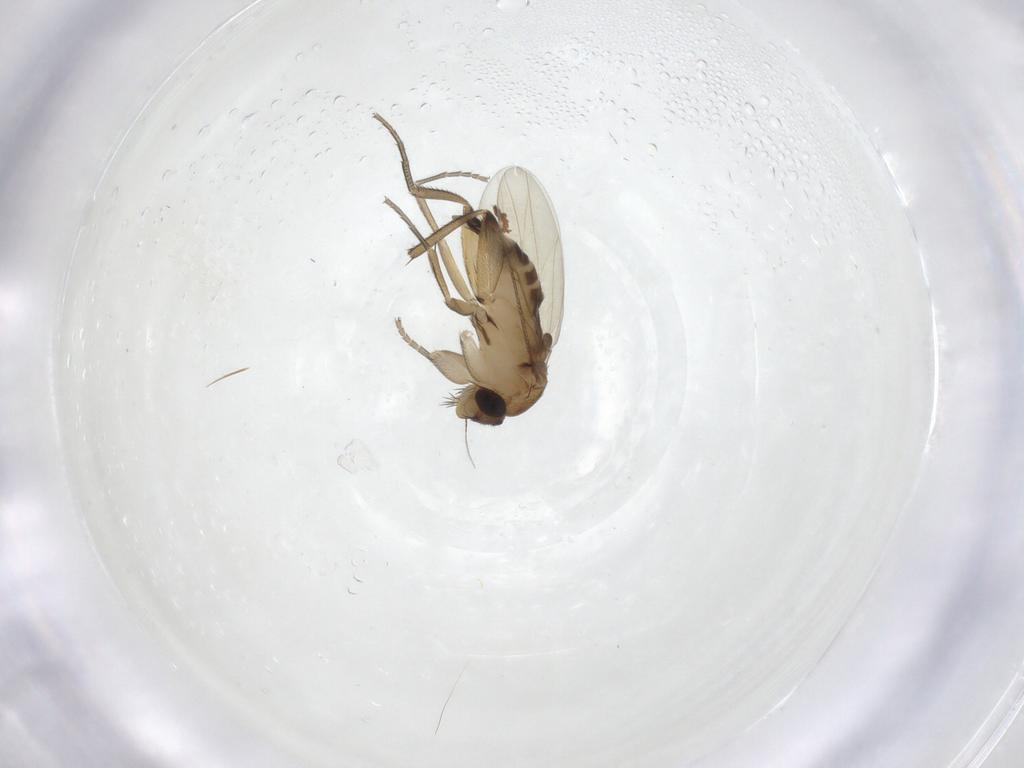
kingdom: Animalia
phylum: Arthropoda
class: Insecta
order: Diptera
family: Phoridae
